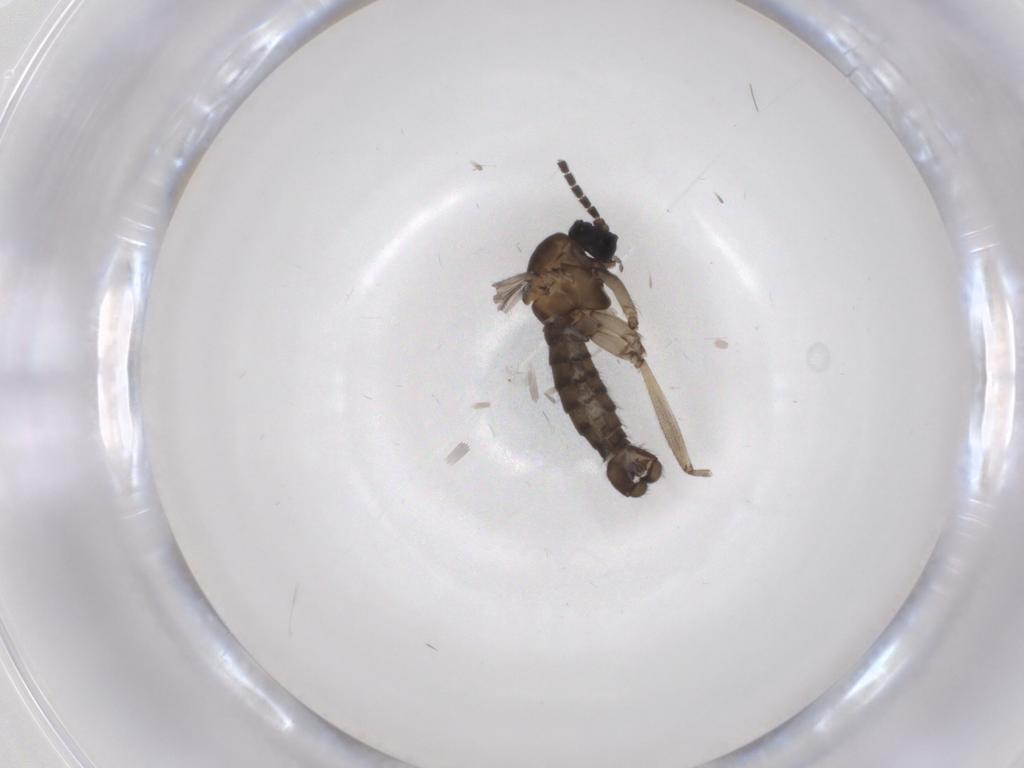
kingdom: Animalia
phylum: Arthropoda
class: Insecta
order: Diptera
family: Sciaridae
